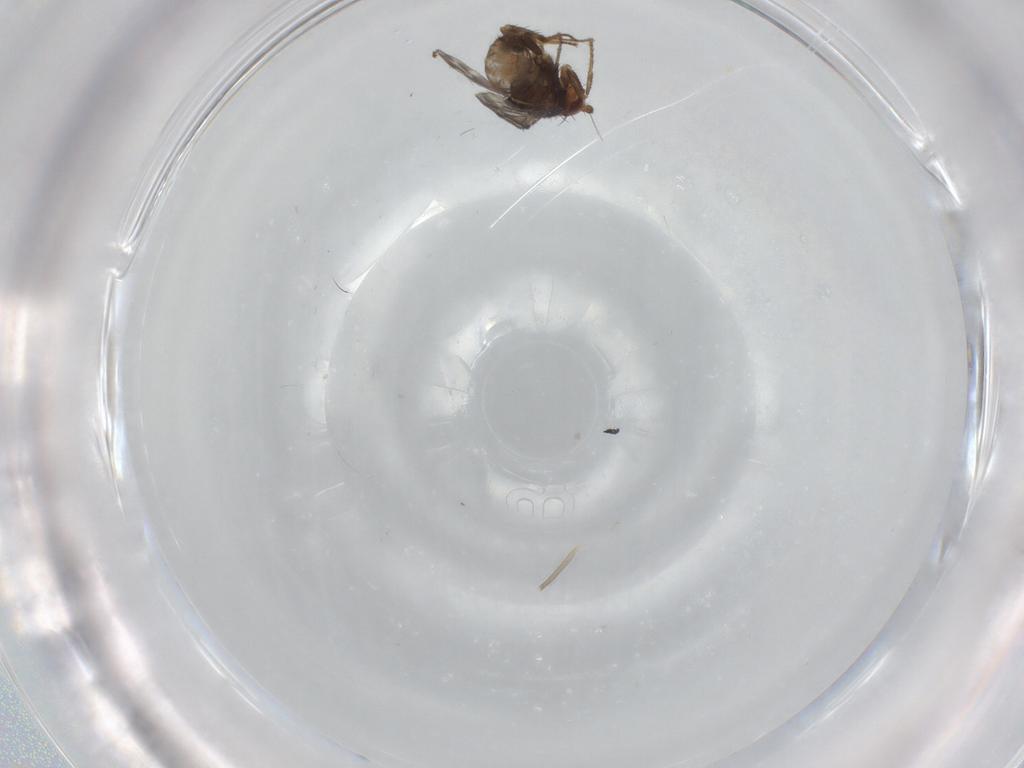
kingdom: Animalia
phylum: Arthropoda
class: Insecta
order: Diptera
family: Cecidomyiidae
